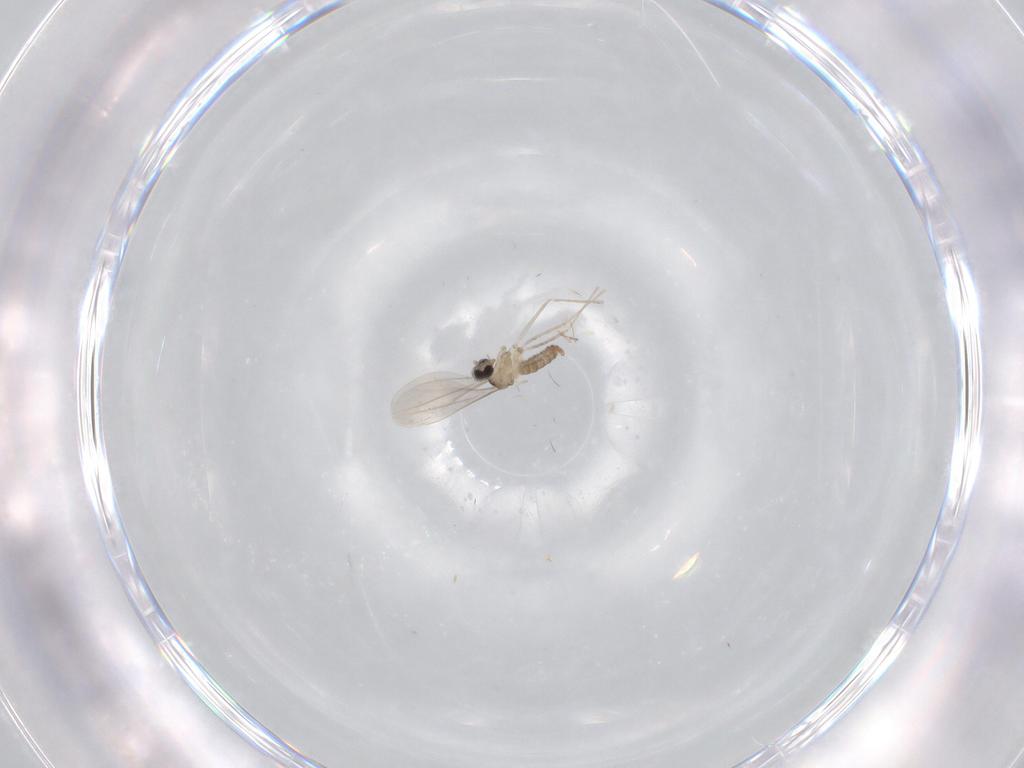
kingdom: Animalia
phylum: Arthropoda
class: Insecta
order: Diptera
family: Cecidomyiidae
